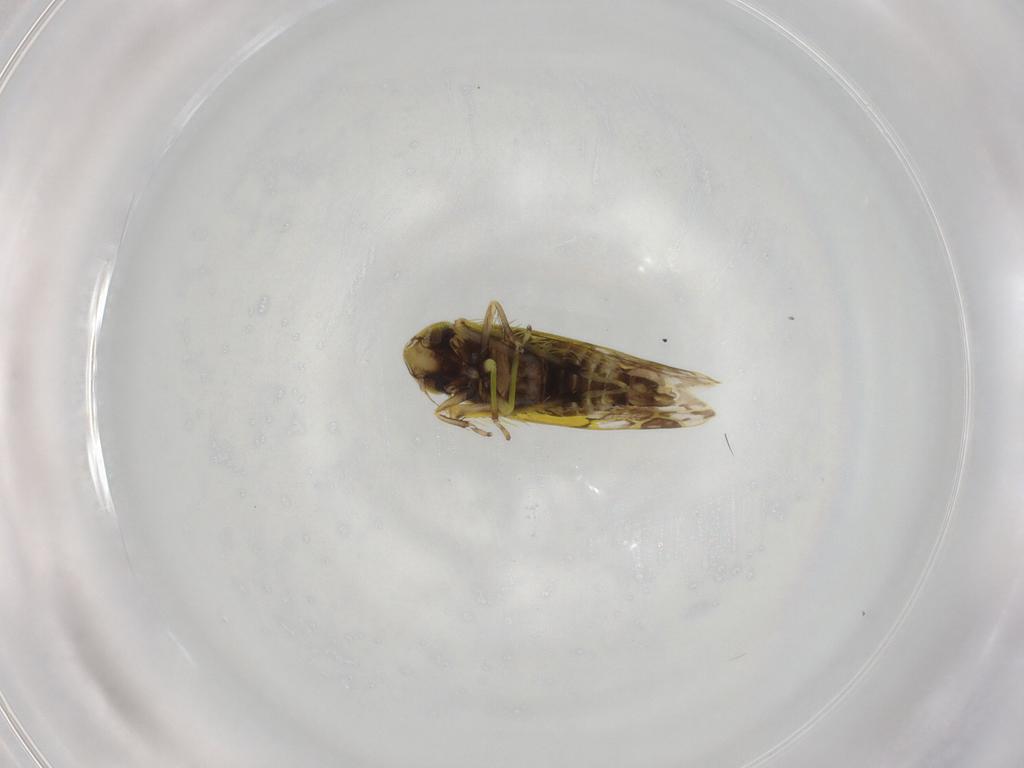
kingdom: Animalia
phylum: Arthropoda
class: Insecta
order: Hemiptera
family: Cicadellidae
